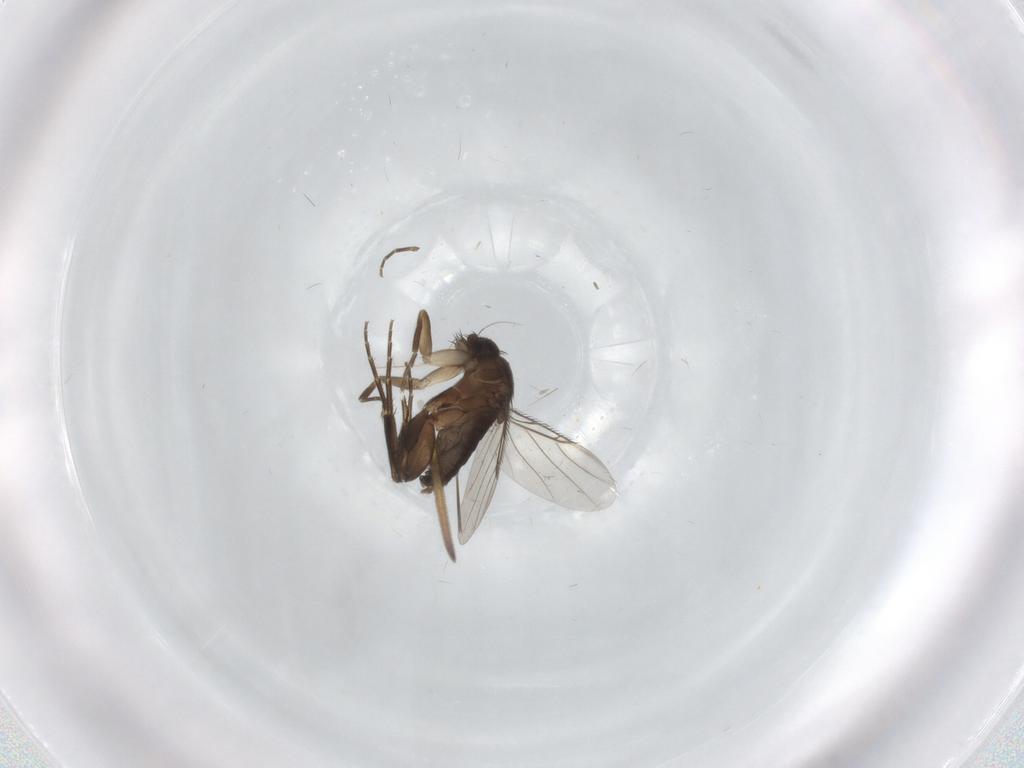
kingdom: Animalia
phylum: Arthropoda
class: Insecta
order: Diptera
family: Phoridae
